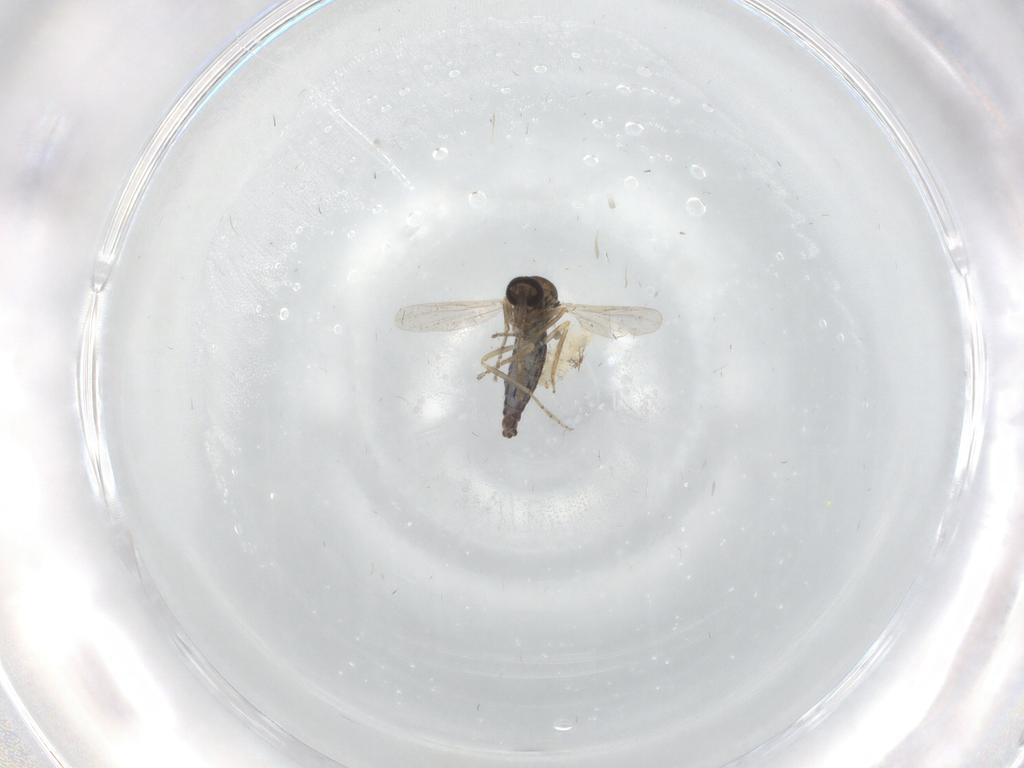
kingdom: Animalia
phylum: Arthropoda
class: Insecta
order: Diptera
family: Ceratopogonidae
